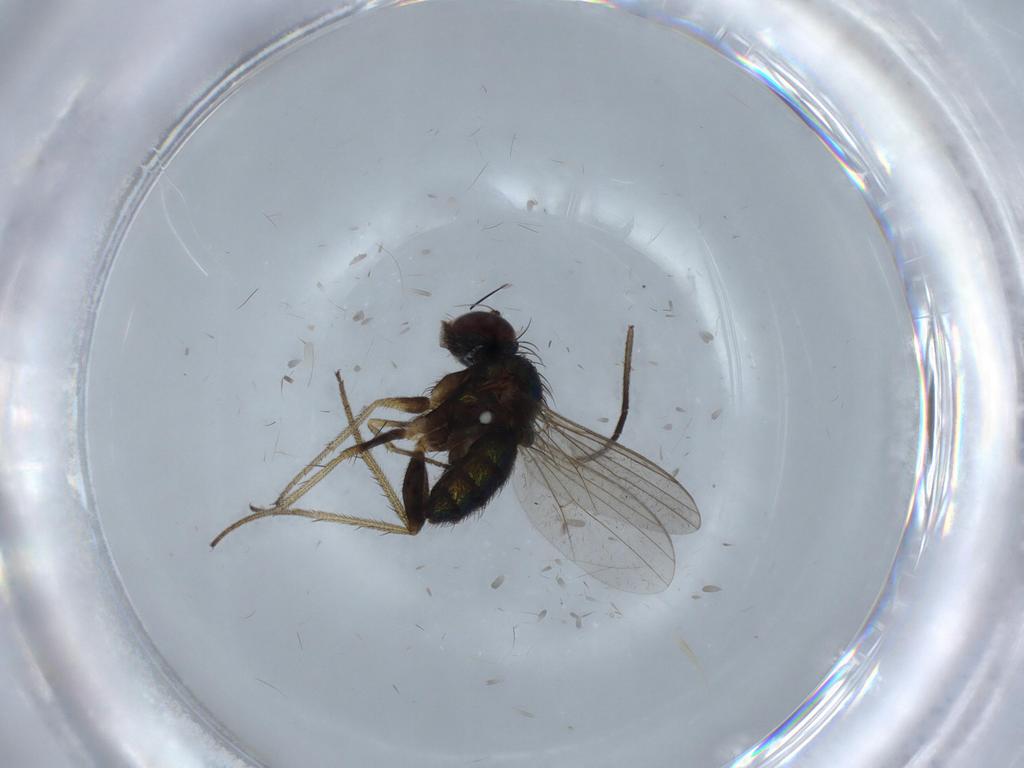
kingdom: Animalia
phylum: Arthropoda
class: Insecta
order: Diptera
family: Sciaridae
